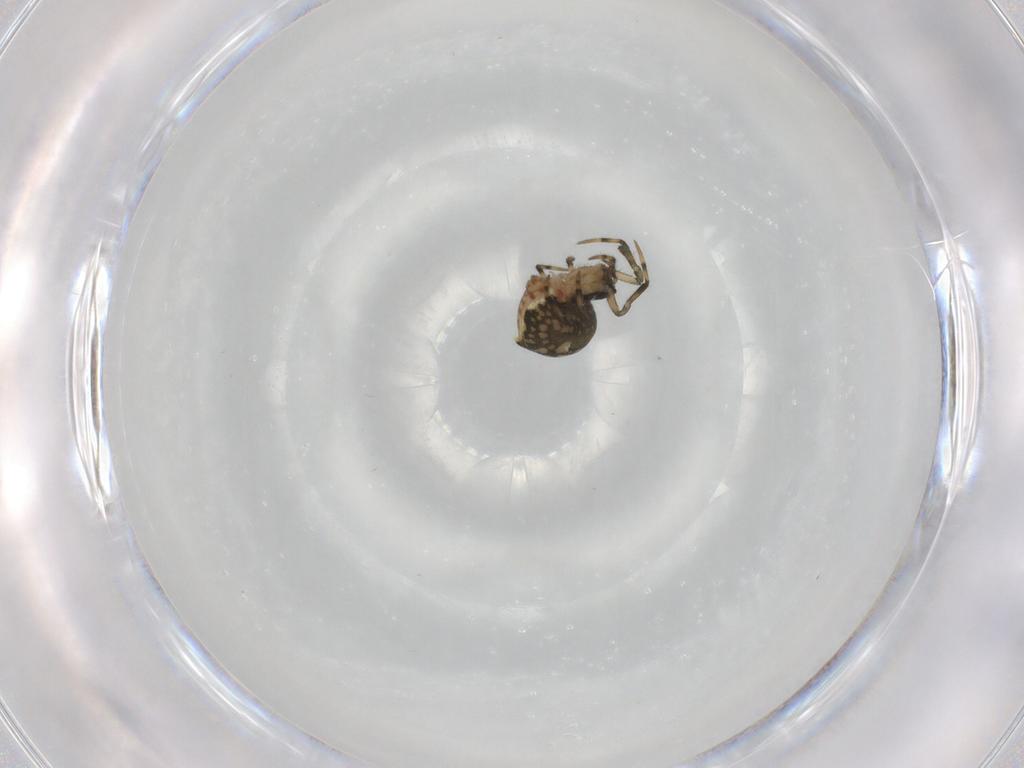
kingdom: Animalia
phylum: Arthropoda
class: Arachnida
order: Araneae
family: Mysmenidae
